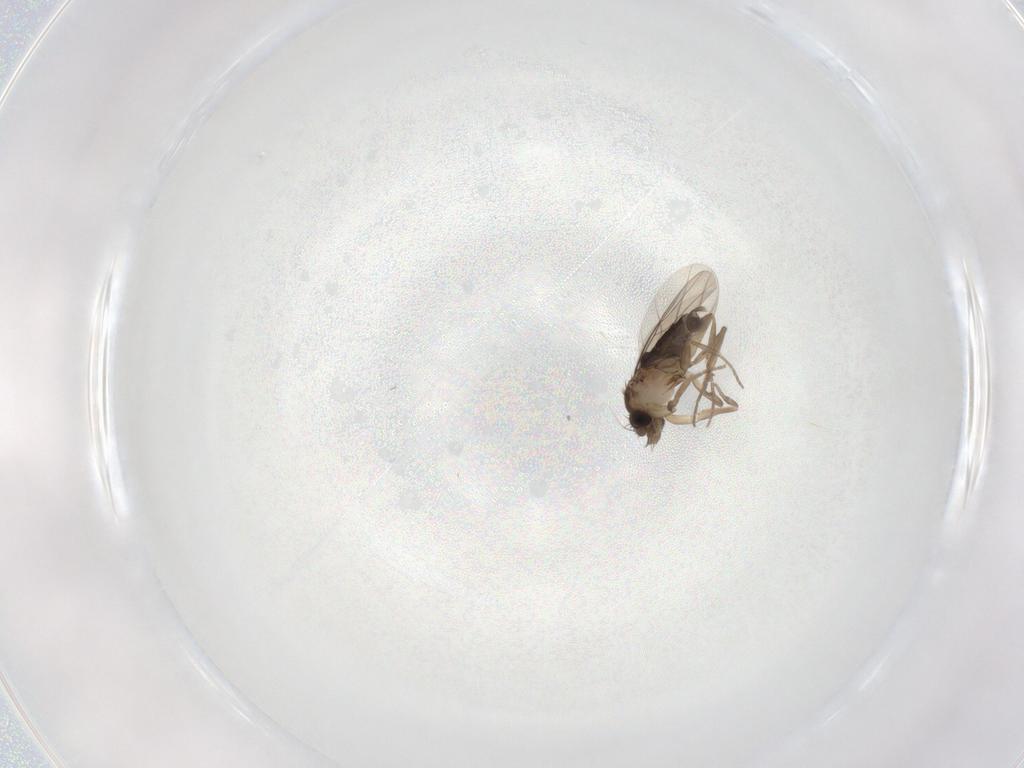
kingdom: Animalia
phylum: Arthropoda
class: Insecta
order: Diptera
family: Phoridae
